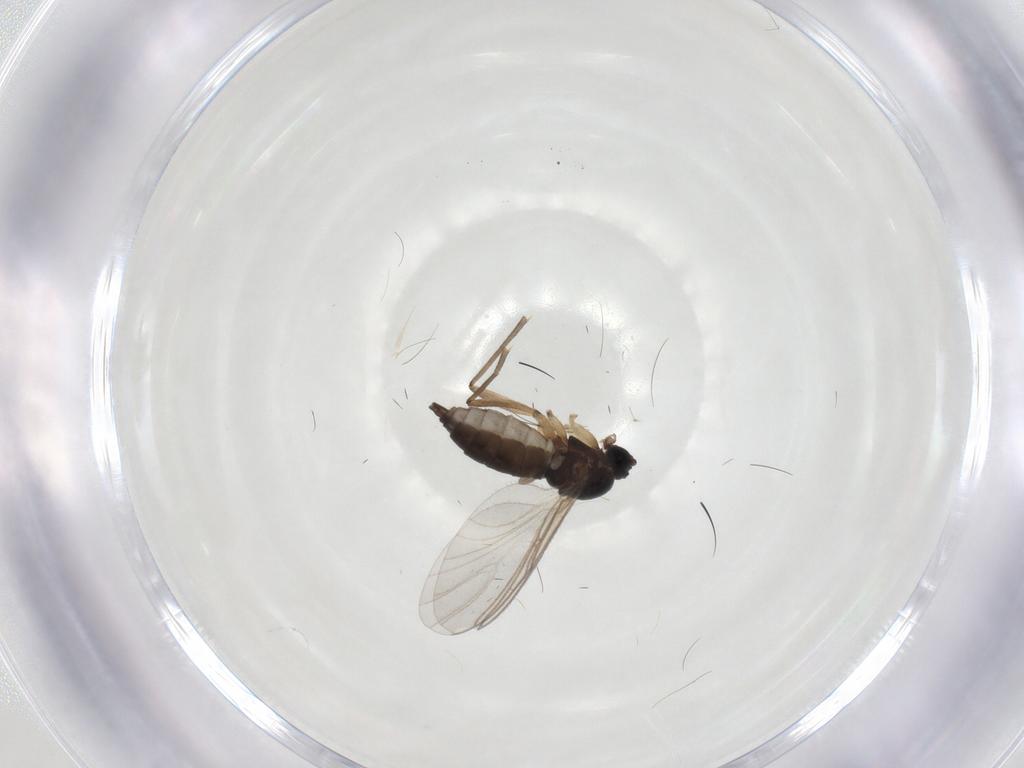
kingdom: Animalia
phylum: Arthropoda
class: Insecta
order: Diptera
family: Sciaridae
